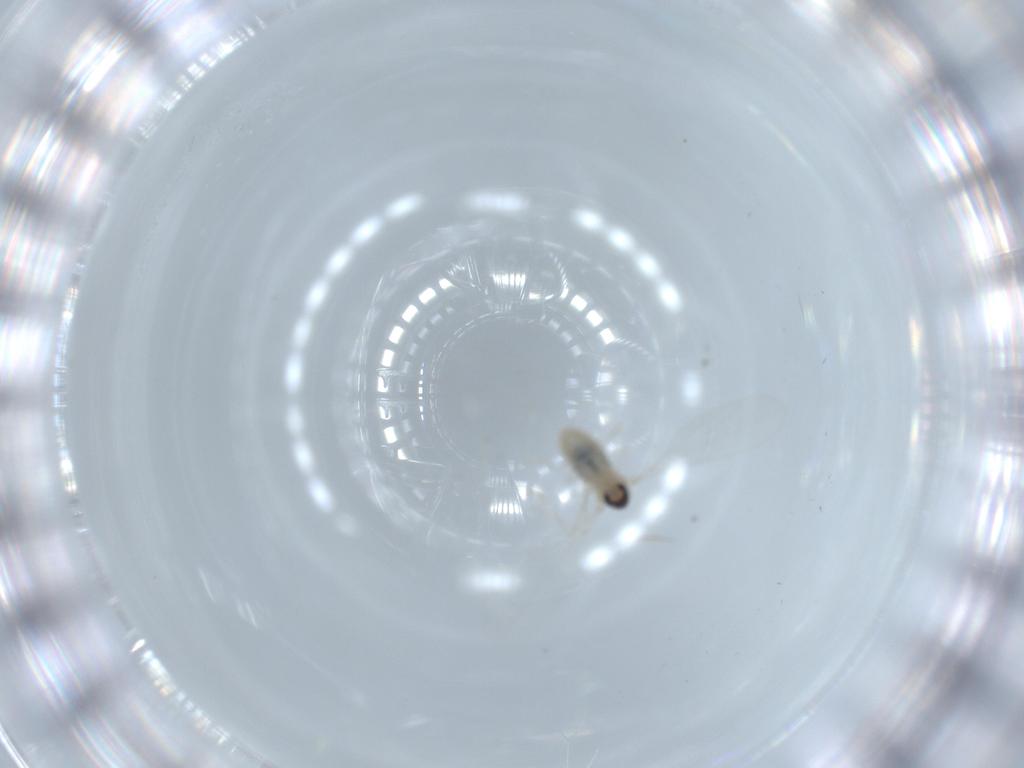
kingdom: Animalia
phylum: Arthropoda
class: Insecta
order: Diptera
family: Cecidomyiidae
